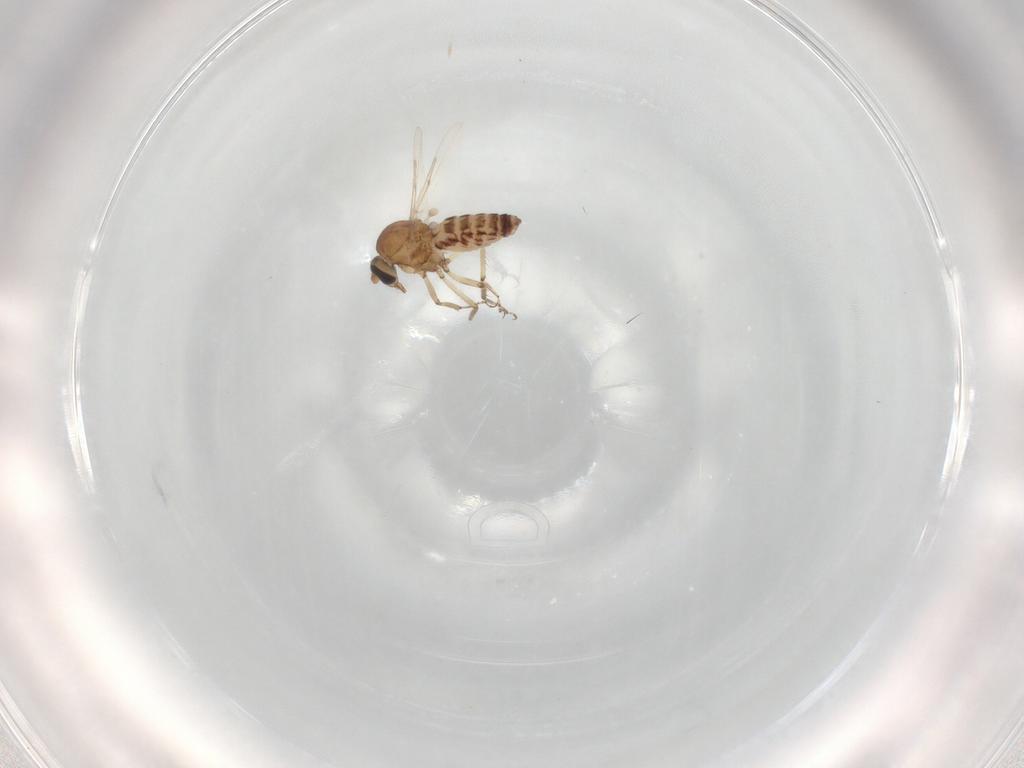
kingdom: Animalia
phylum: Arthropoda
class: Insecta
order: Diptera
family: Ceratopogonidae
